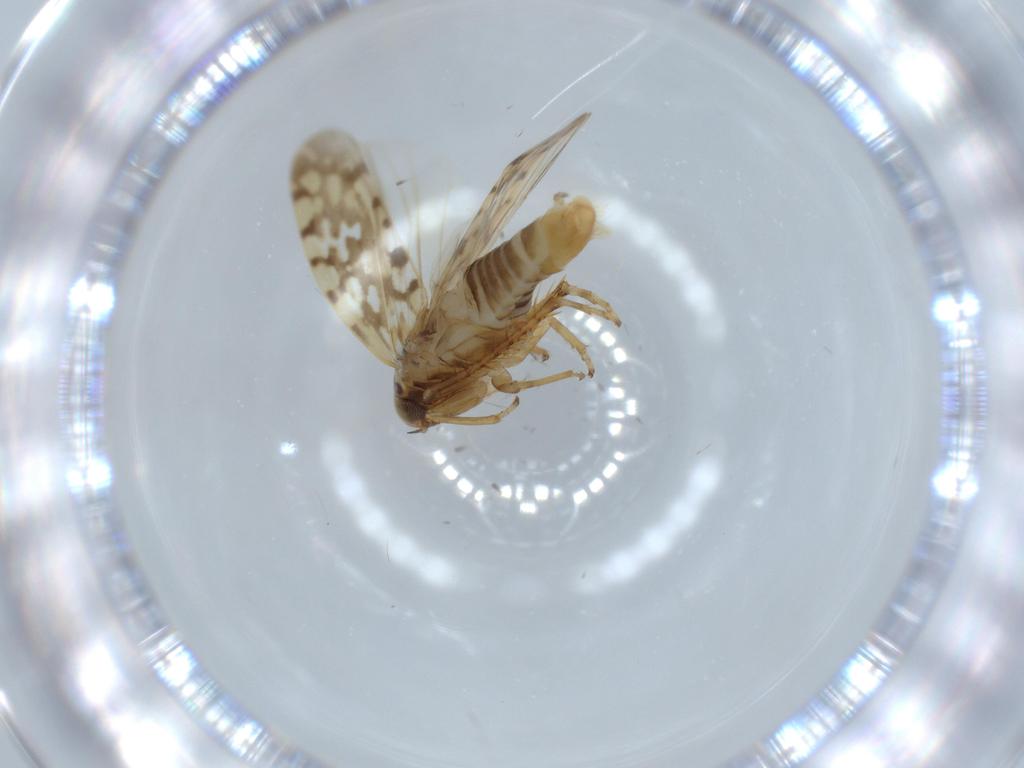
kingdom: Animalia
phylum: Arthropoda
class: Insecta
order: Hemiptera
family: Cicadellidae
